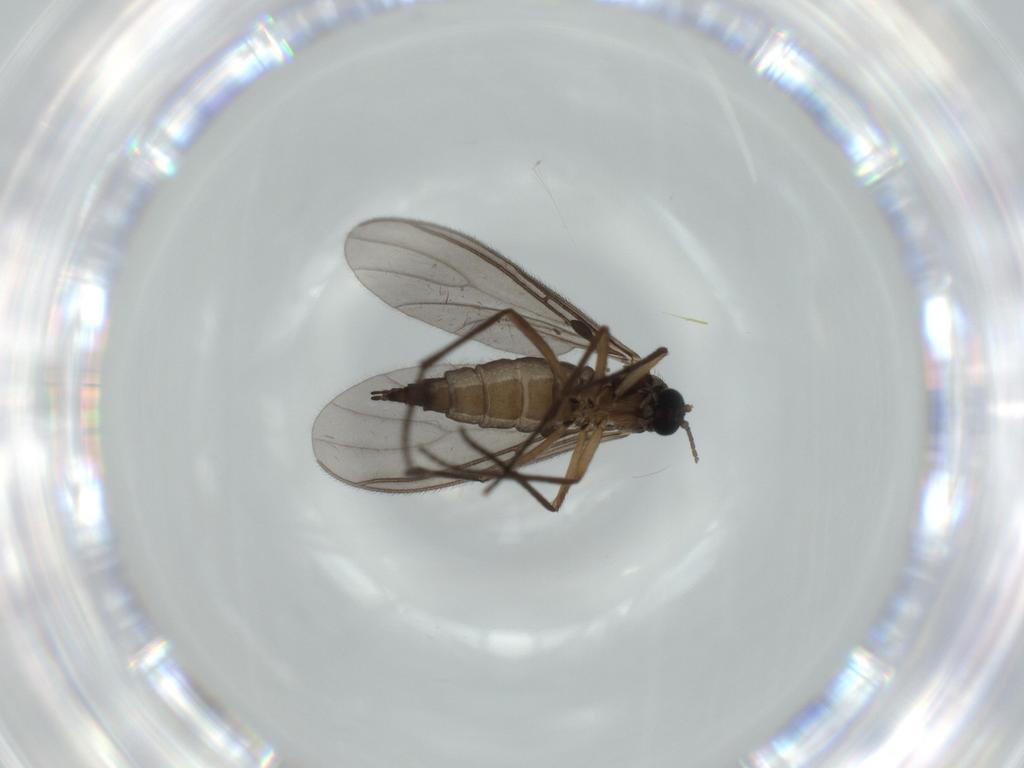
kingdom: Animalia
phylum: Arthropoda
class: Insecta
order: Diptera
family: Sciaridae
